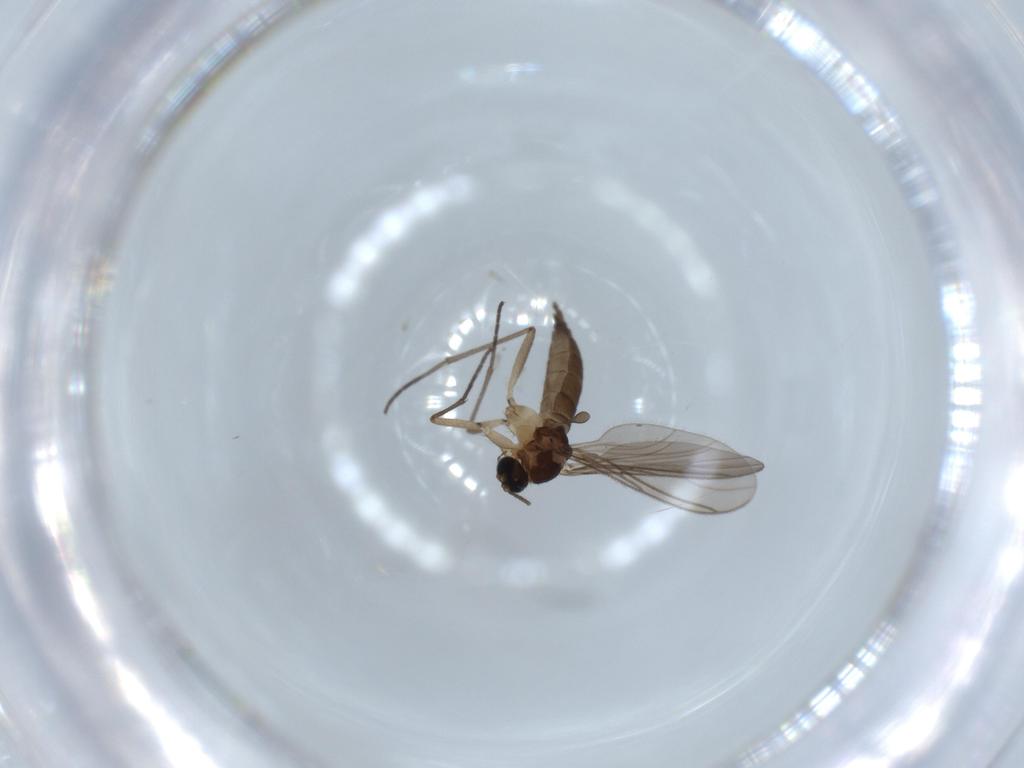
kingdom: Animalia
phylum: Arthropoda
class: Insecta
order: Diptera
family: Sciaridae
